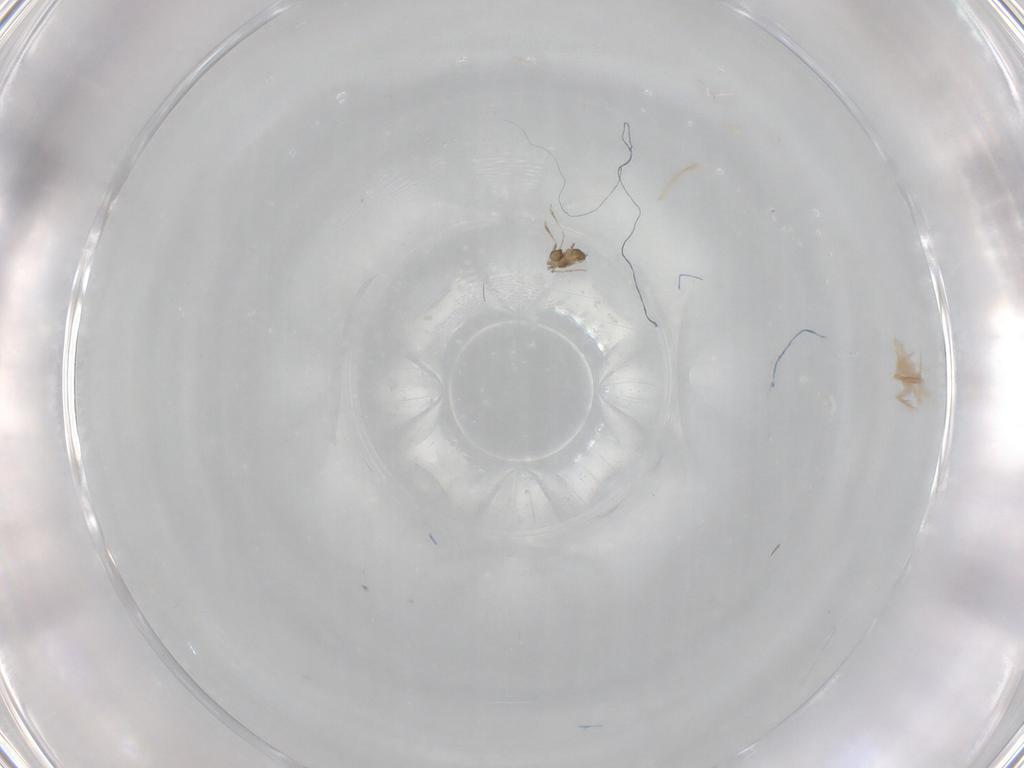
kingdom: Animalia
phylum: Arthropoda
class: Insecta
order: Diptera
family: Cecidomyiidae
